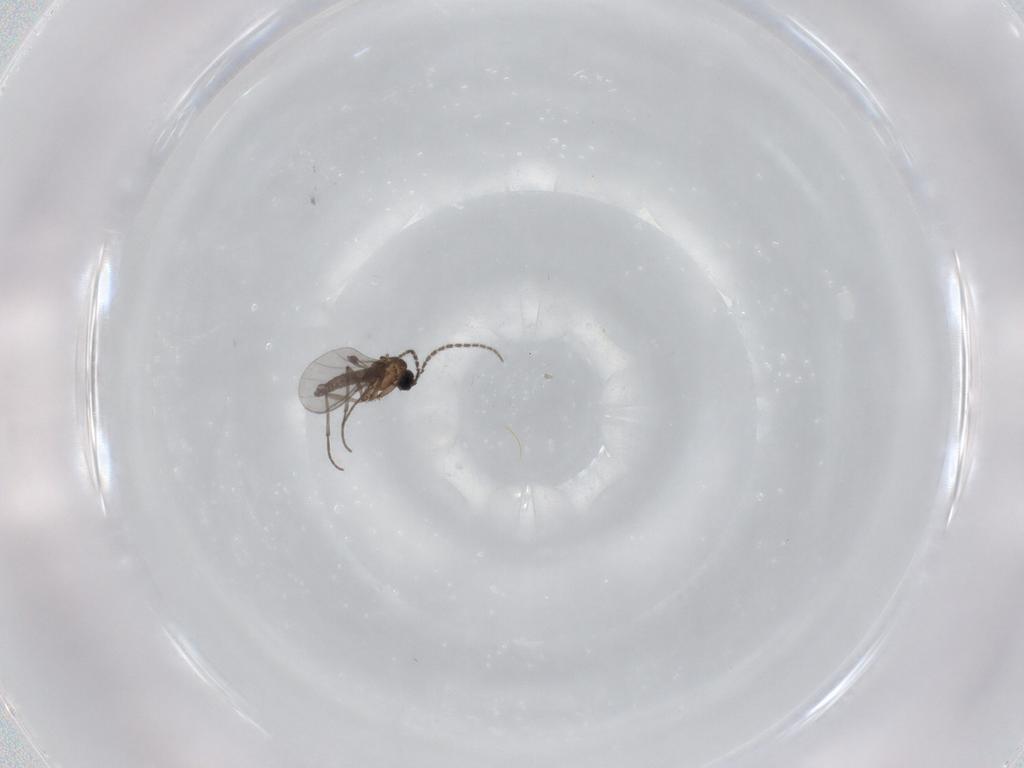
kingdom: Animalia
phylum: Arthropoda
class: Insecta
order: Diptera
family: Sciaridae
